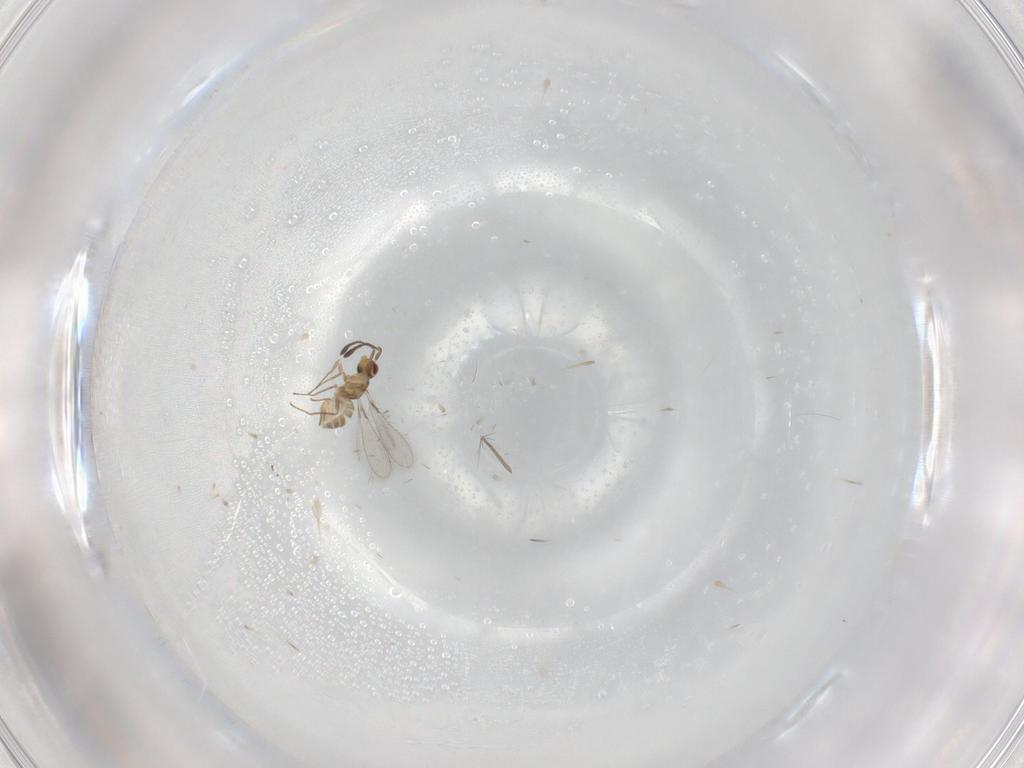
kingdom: Animalia
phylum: Arthropoda
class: Insecta
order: Hymenoptera
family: Mymaridae
